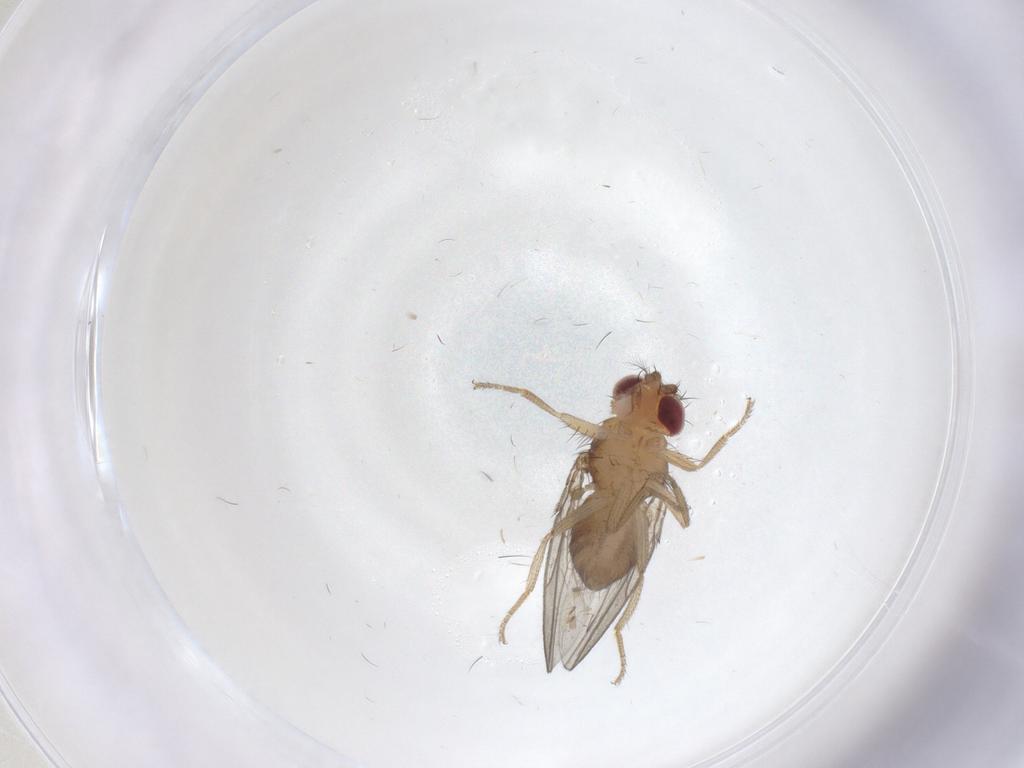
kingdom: Animalia
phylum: Arthropoda
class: Insecta
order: Diptera
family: Drosophilidae
